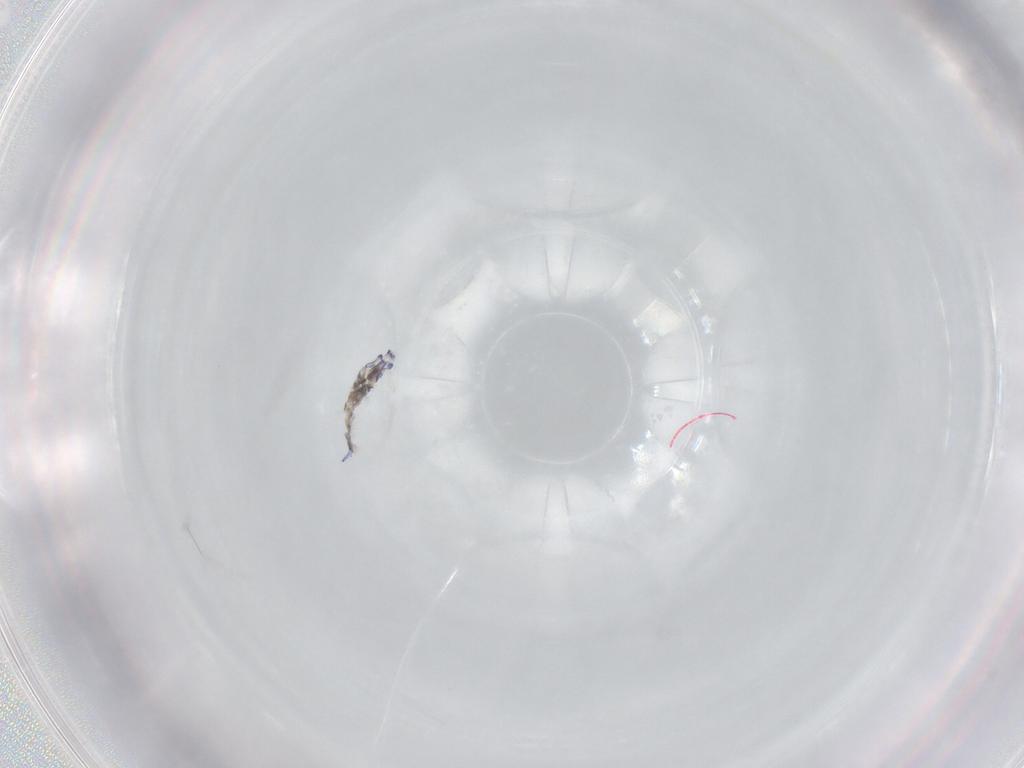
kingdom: Animalia
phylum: Arthropoda
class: Collembola
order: Entomobryomorpha
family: Entomobryidae
